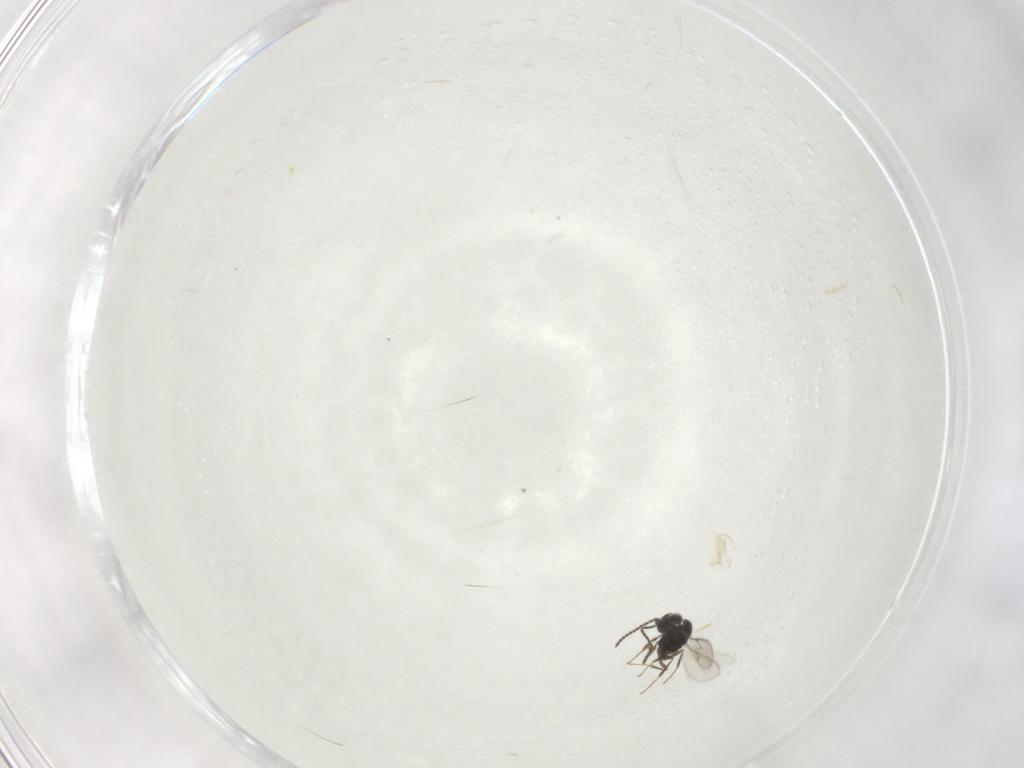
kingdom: Animalia
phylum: Arthropoda
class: Insecta
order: Hymenoptera
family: Scelionidae
